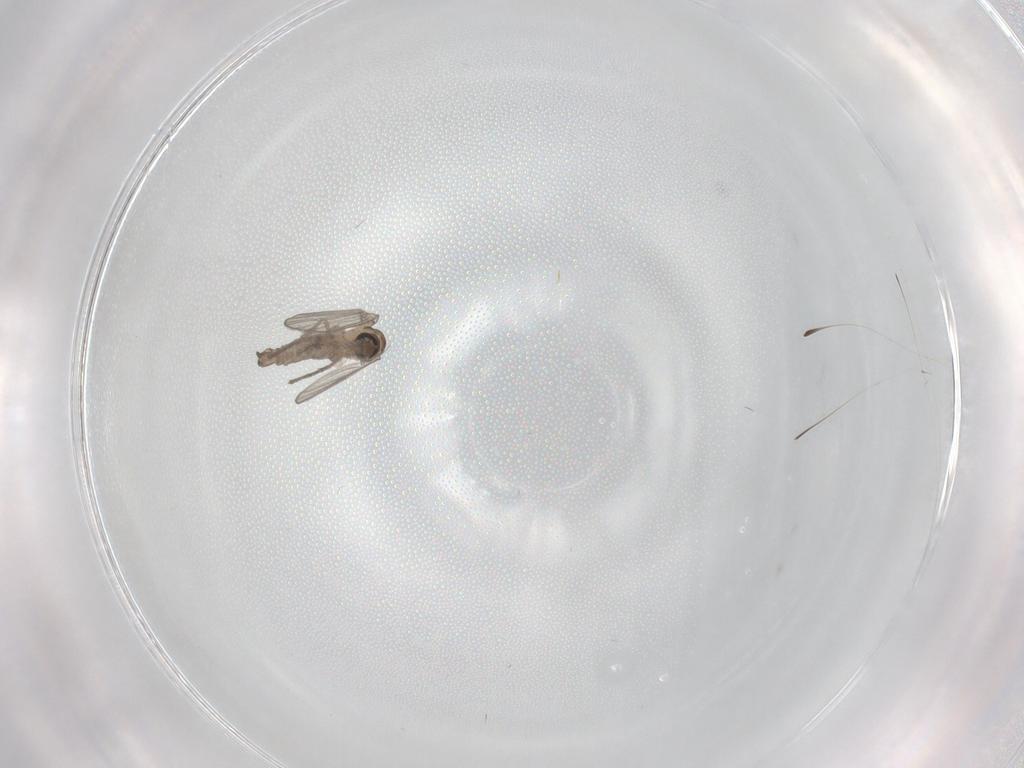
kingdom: Animalia
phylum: Arthropoda
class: Insecta
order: Diptera
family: Psychodidae
